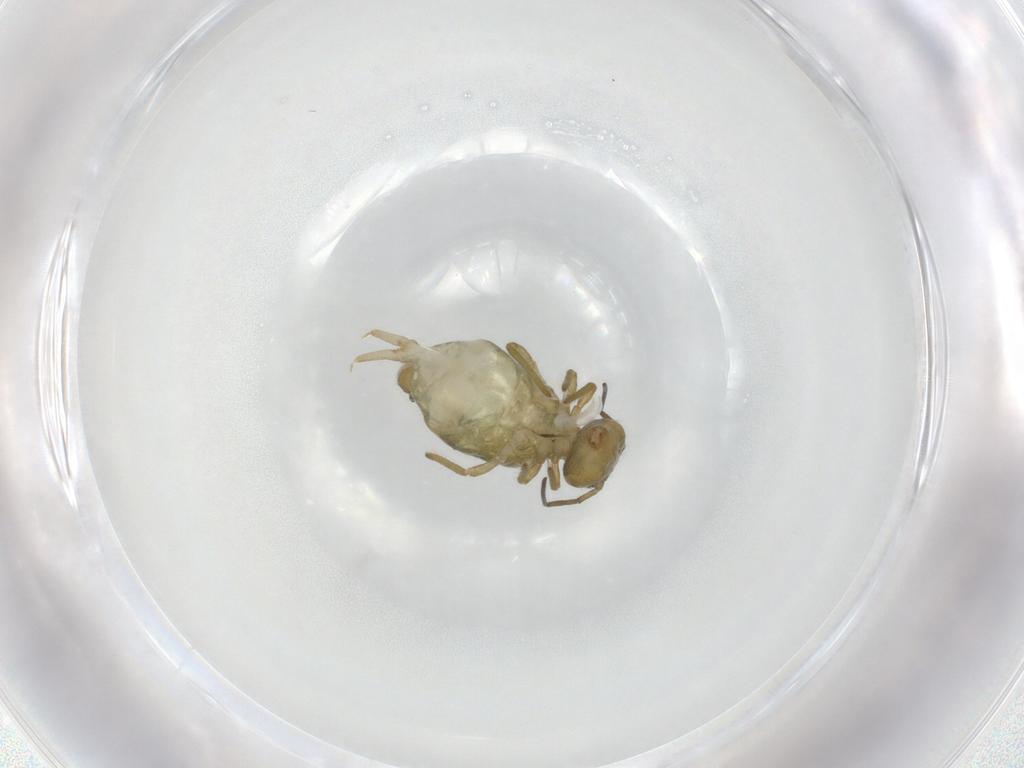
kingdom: Animalia
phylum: Arthropoda
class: Collembola
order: Symphypleona
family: Sminthuridae
